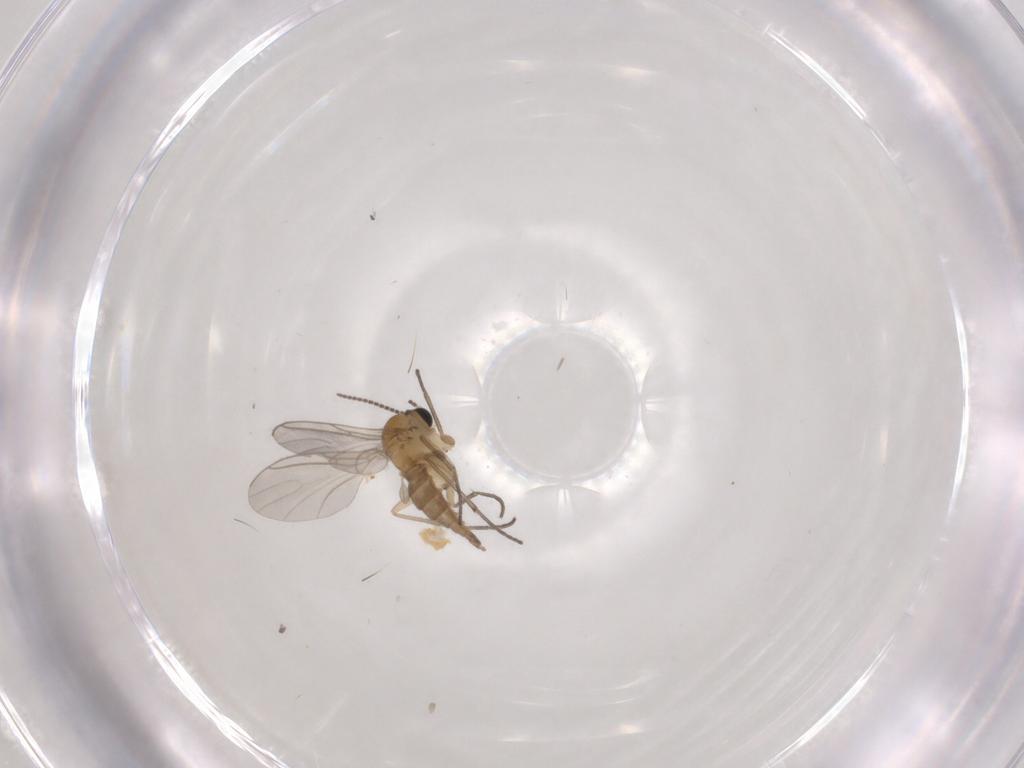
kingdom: Animalia
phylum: Arthropoda
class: Insecta
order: Diptera
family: Sciaridae
